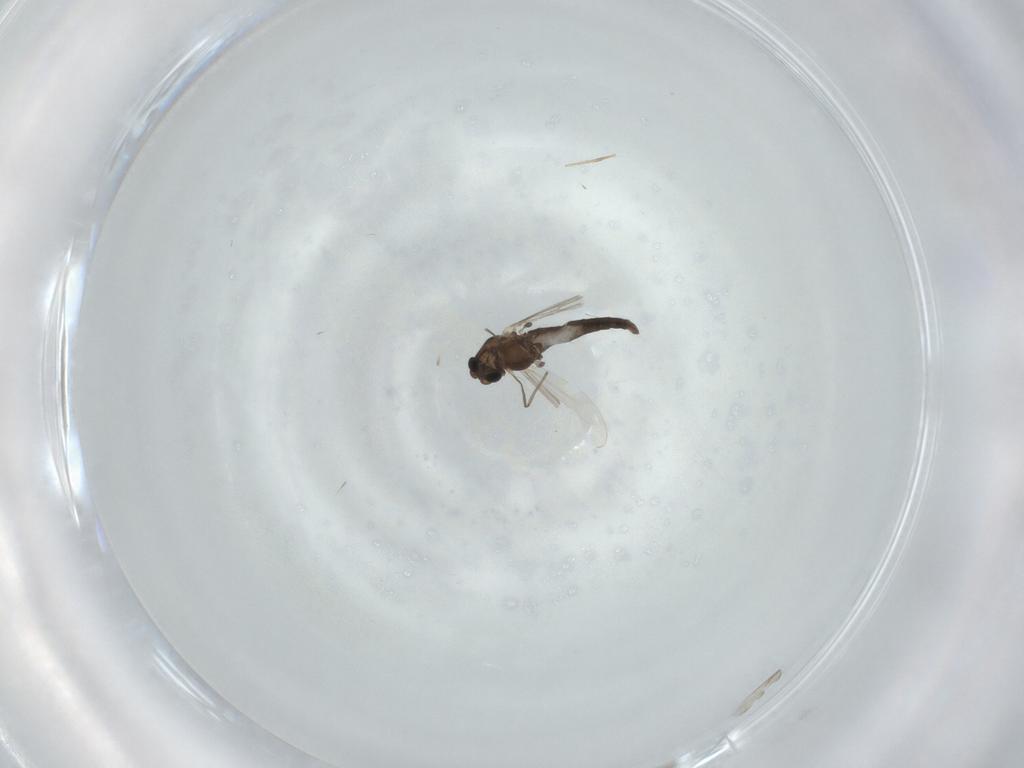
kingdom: Animalia
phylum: Arthropoda
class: Insecta
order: Diptera
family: Chironomidae
